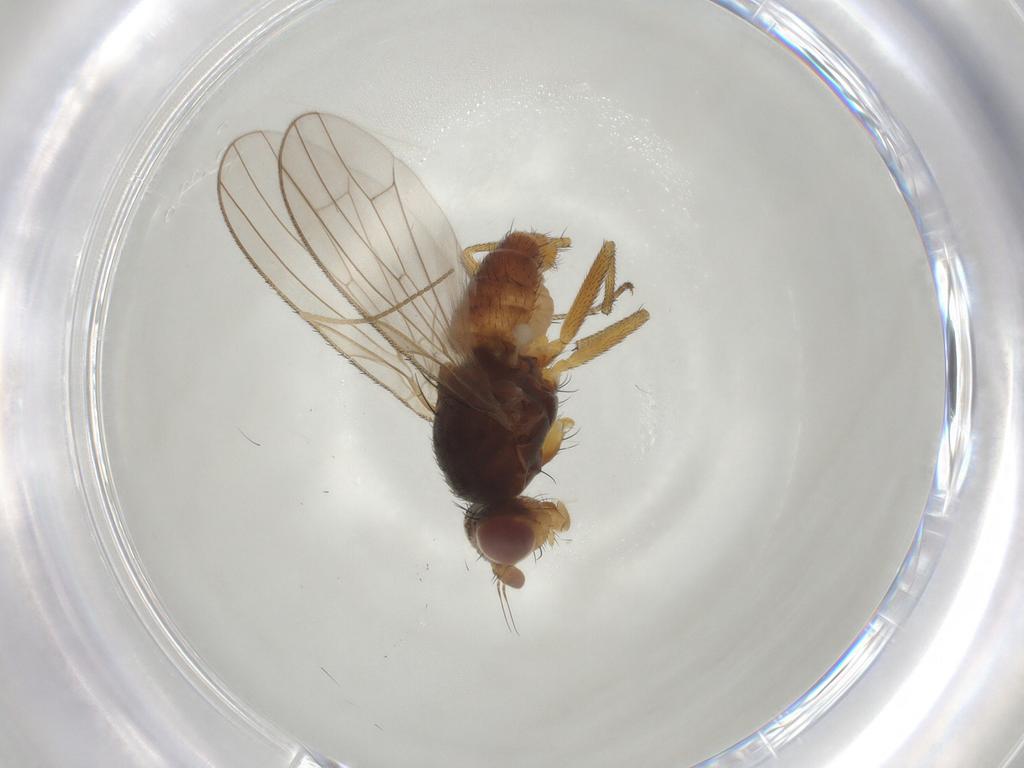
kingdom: Animalia
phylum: Arthropoda
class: Insecta
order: Diptera
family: Heleomyzidae
